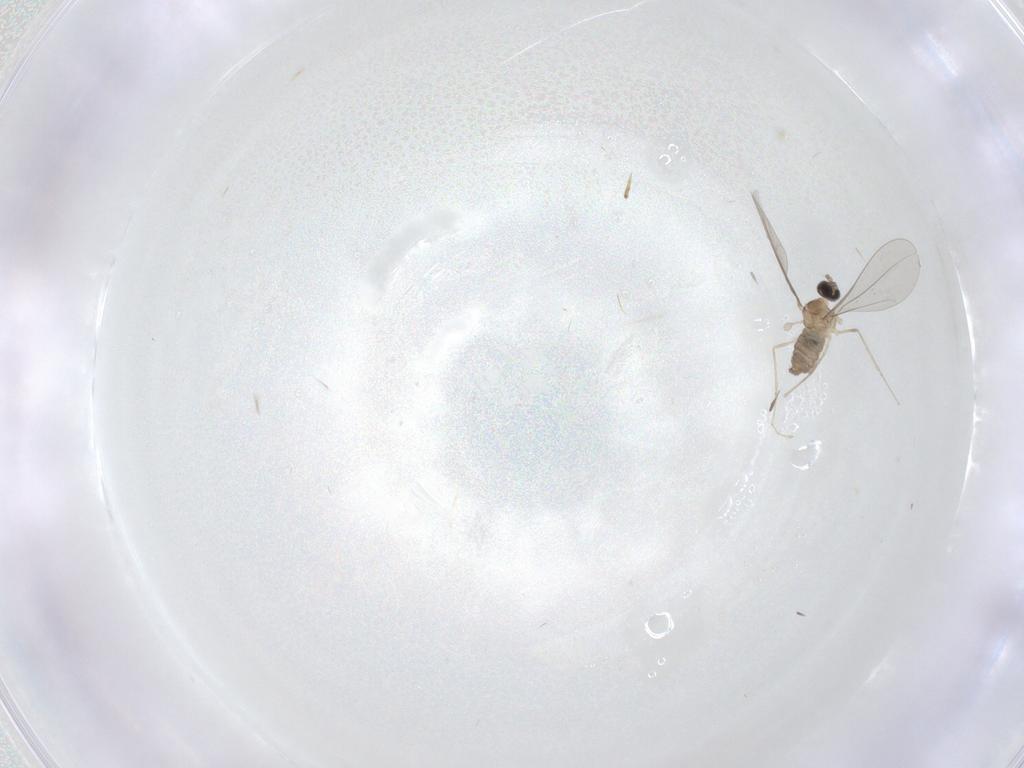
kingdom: Animalia
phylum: Arthropoda
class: Insecta
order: Diptera
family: Cecidomyiidae
